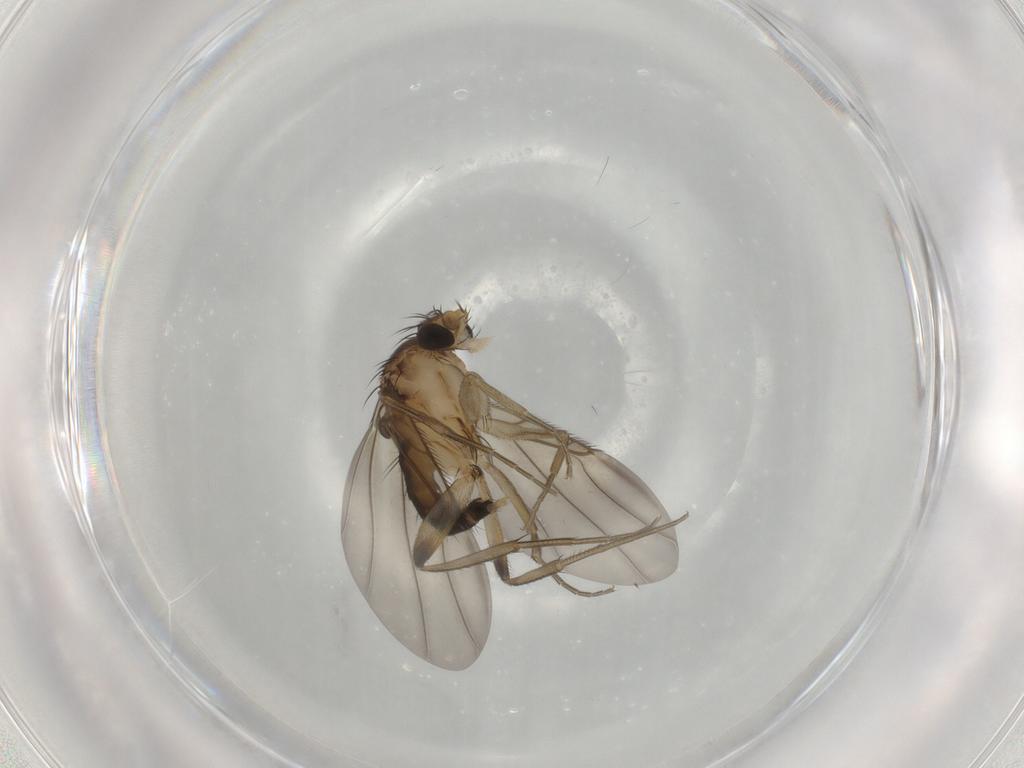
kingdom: Animalia
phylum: Arthropoda
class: Insecta
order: Diptera
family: Phoridae
